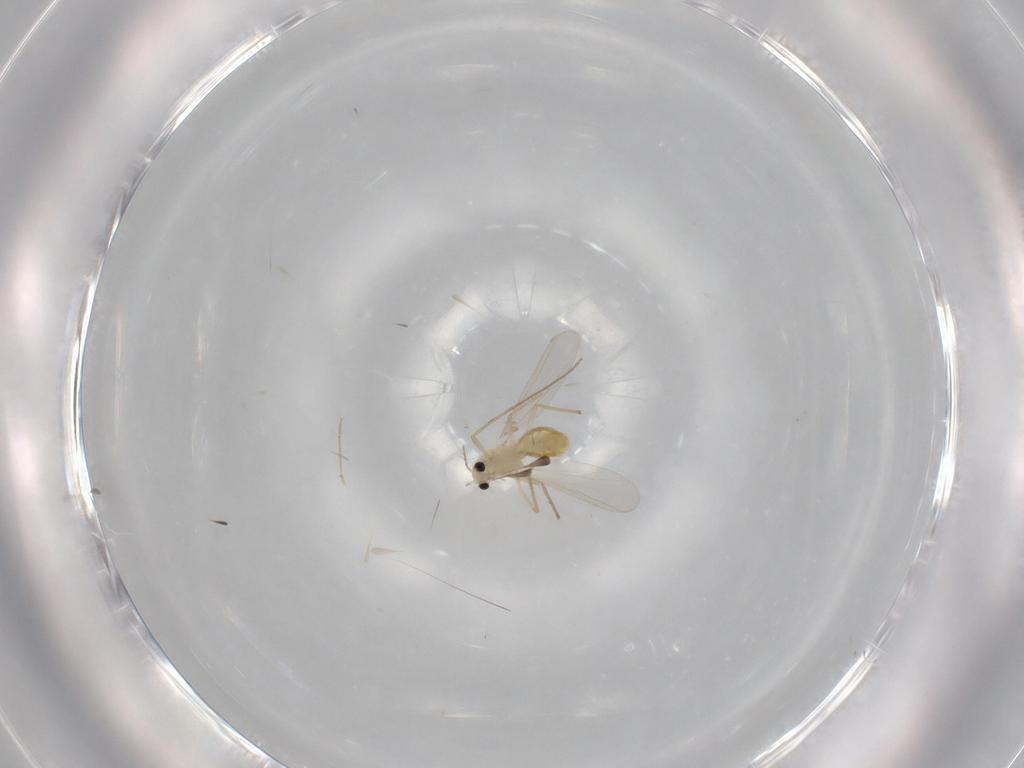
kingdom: Animalia
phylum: Arthropoda
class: Insecta
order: Diptera
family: Chironomidae
